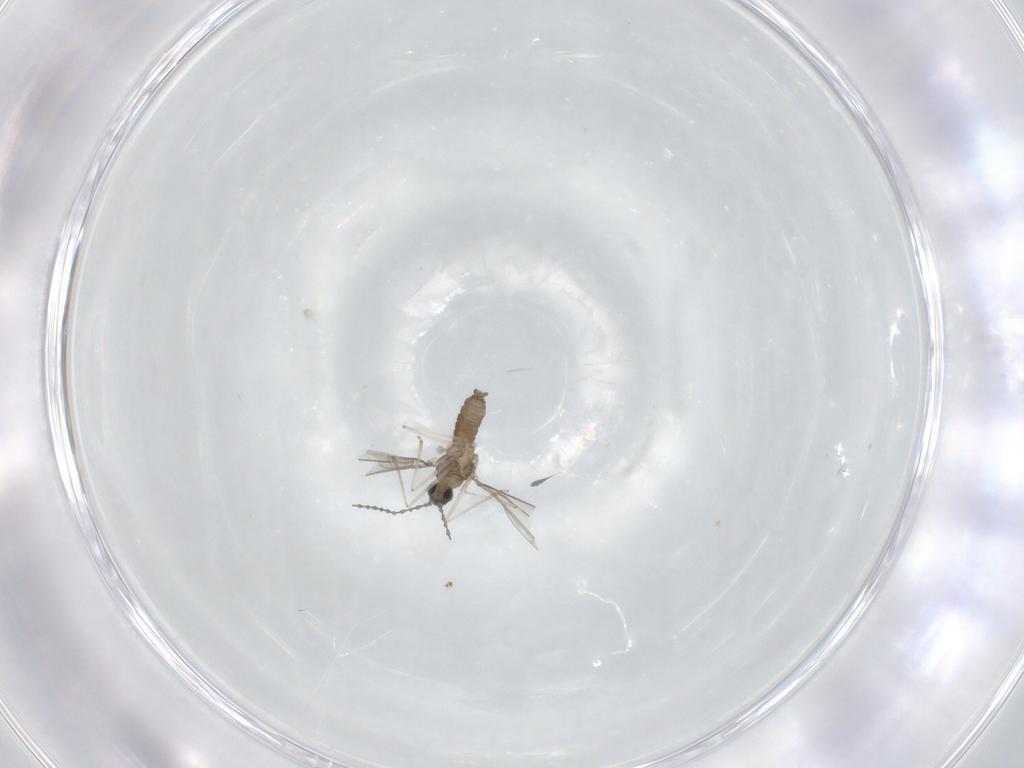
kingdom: Animalia
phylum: Arthropoda
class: Insecta
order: Diptera
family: Cecidomyiidae
